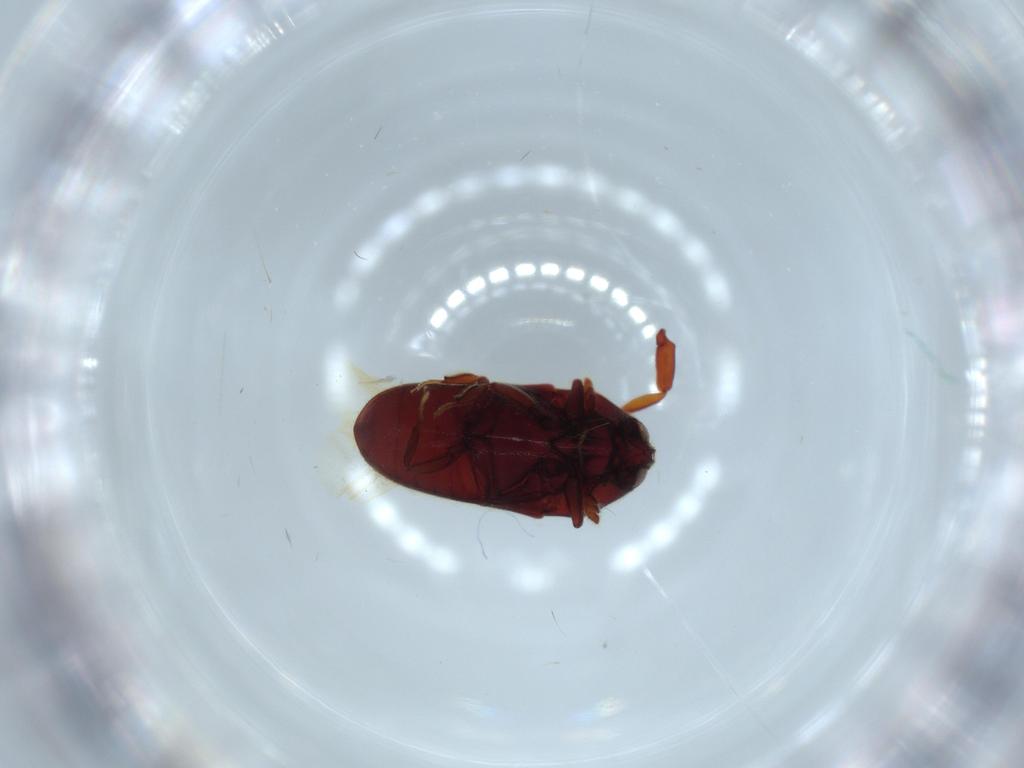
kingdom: Animalia
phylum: Arthropoda
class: Insecta
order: Coleoptera
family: Throscidae
